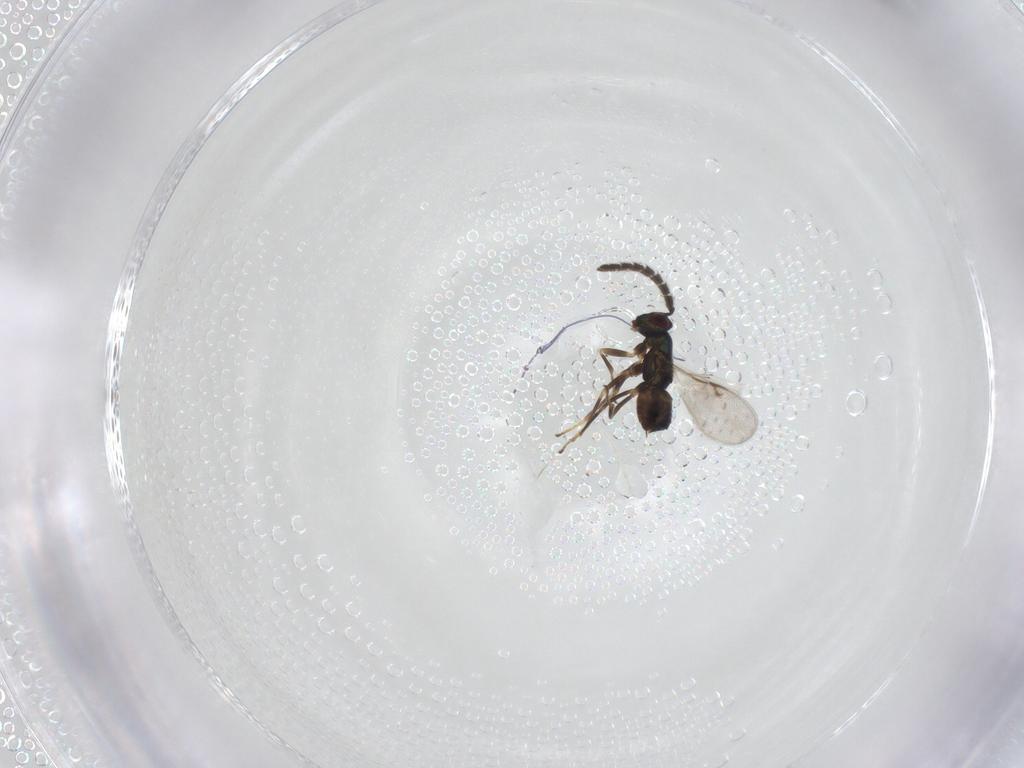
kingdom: Animalia
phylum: Arthropoda
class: Insecta
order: Hymenoptera
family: Encyrtidae
